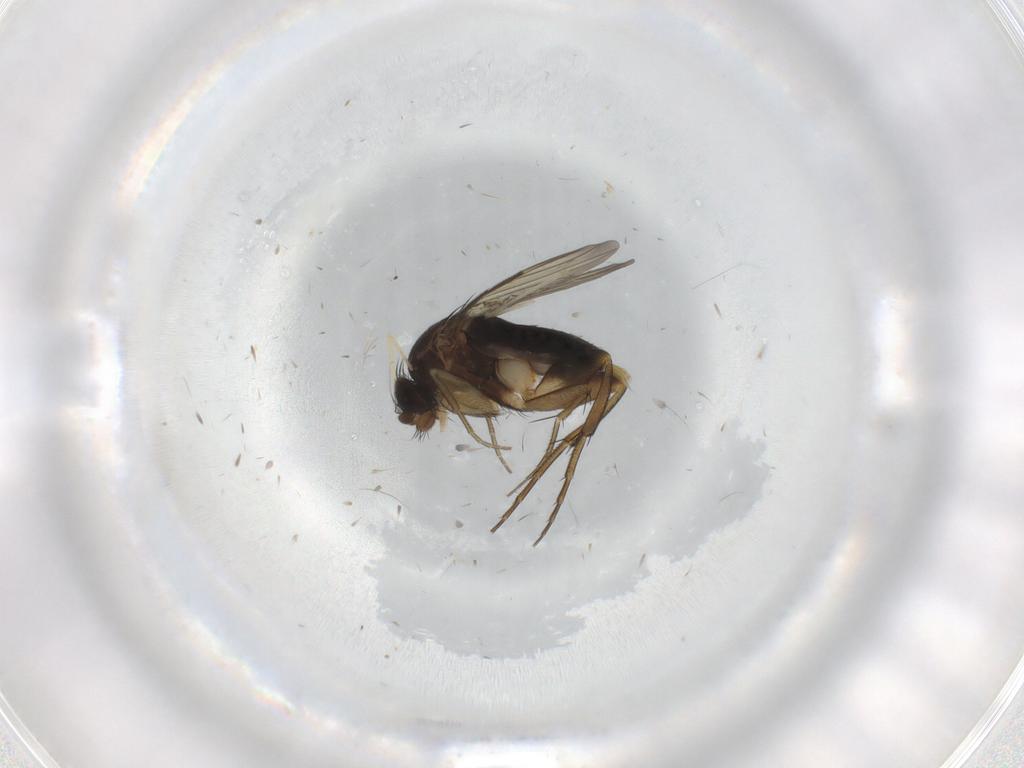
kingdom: Animalia
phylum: Arthropoda
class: Insecta
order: Diptera
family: Cecidomyiidae
